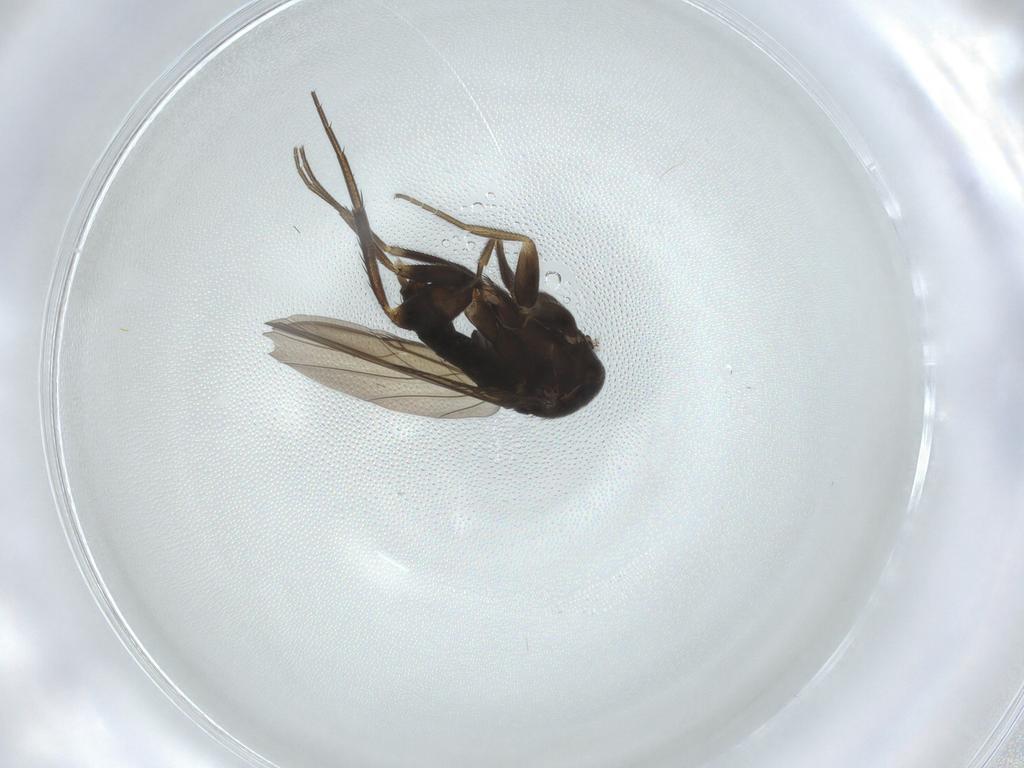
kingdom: Animalia
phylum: Arthropoda
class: Insecta
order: Diptera
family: Phoridae
